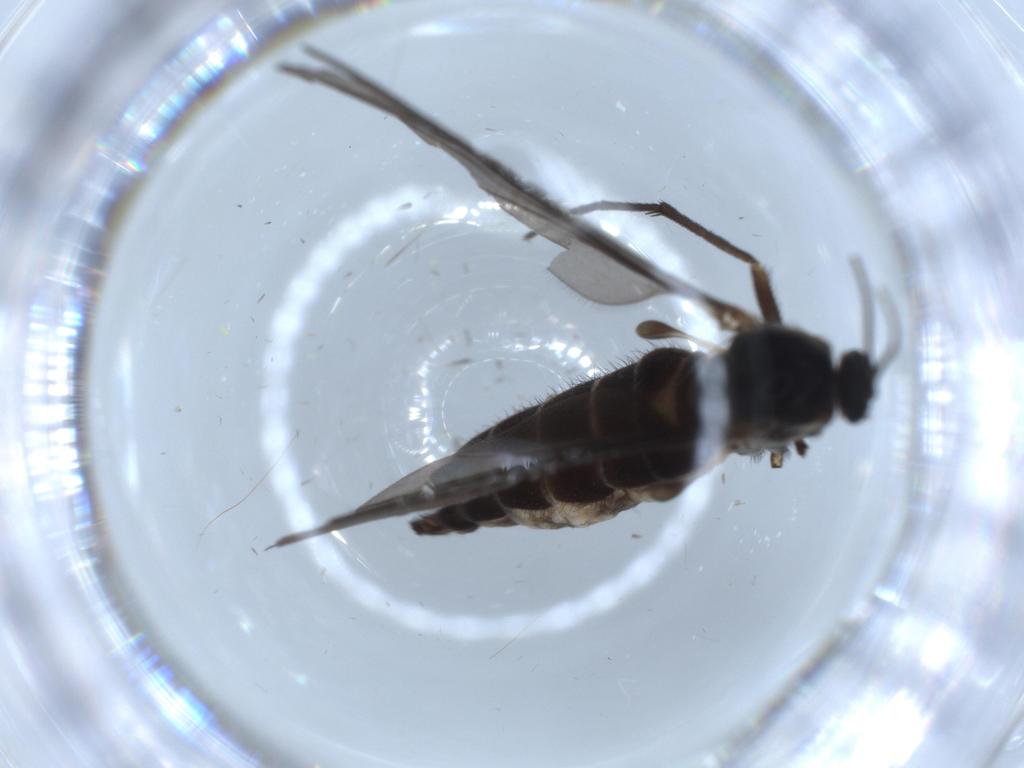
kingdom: Animalia
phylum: Arthropoda
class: Insecta
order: Diptera
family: Sciaridae
